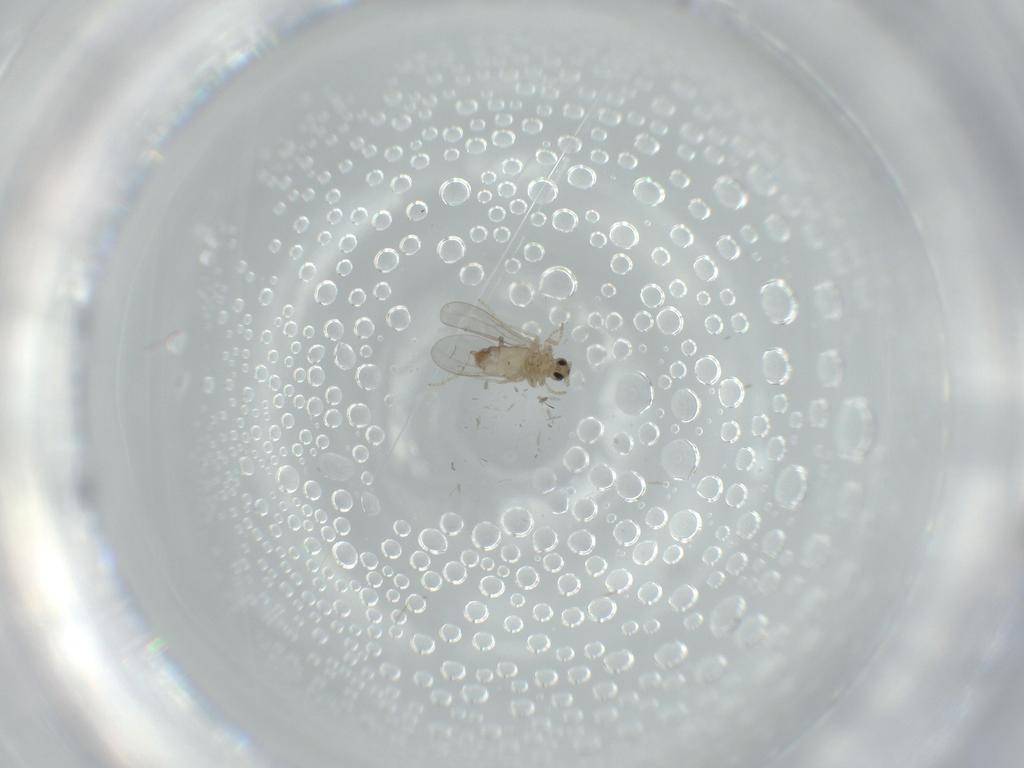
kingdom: Animalia
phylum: Arthropoda
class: Insecta
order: Diptera
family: Cecidomyiidae
